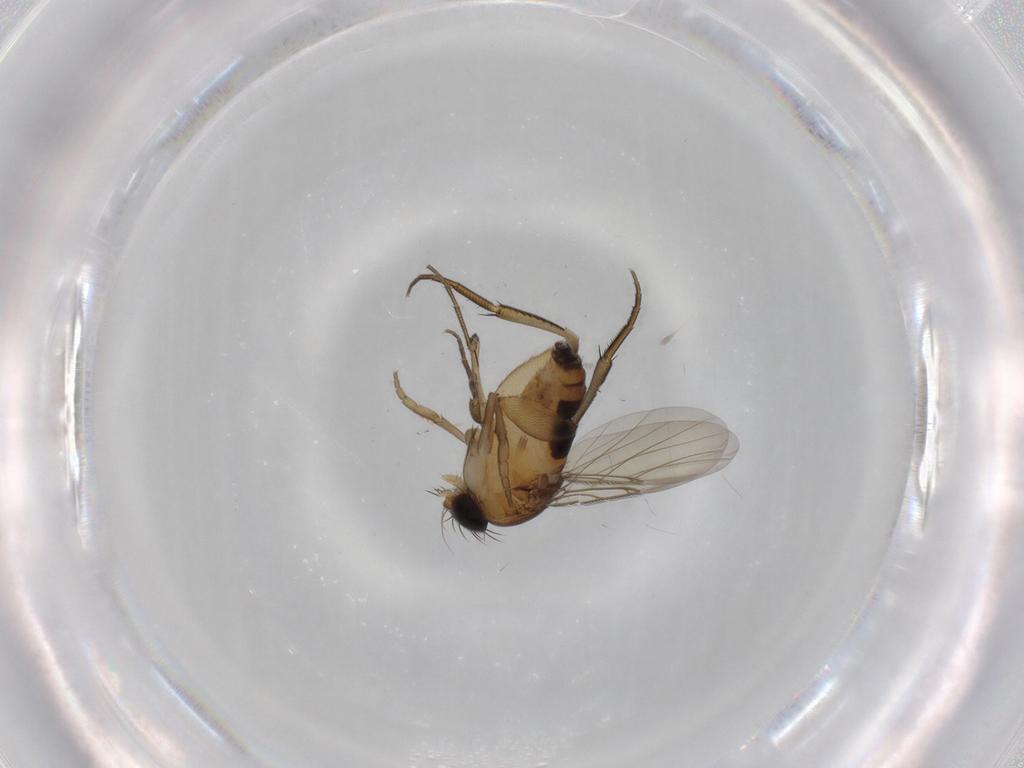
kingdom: Animalia
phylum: Arthropoda
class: Insecta
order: Diptera
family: Phoridae
